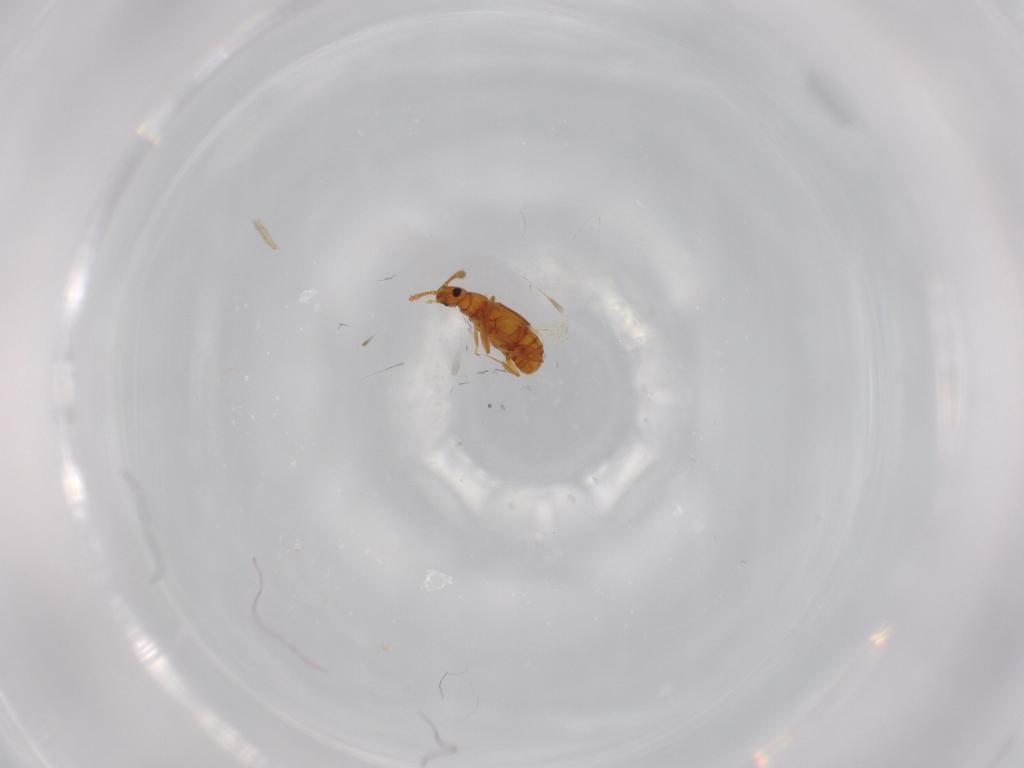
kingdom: Animalia
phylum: Arthropoda
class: Insecta
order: Coleoptera
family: Staphylinidae
